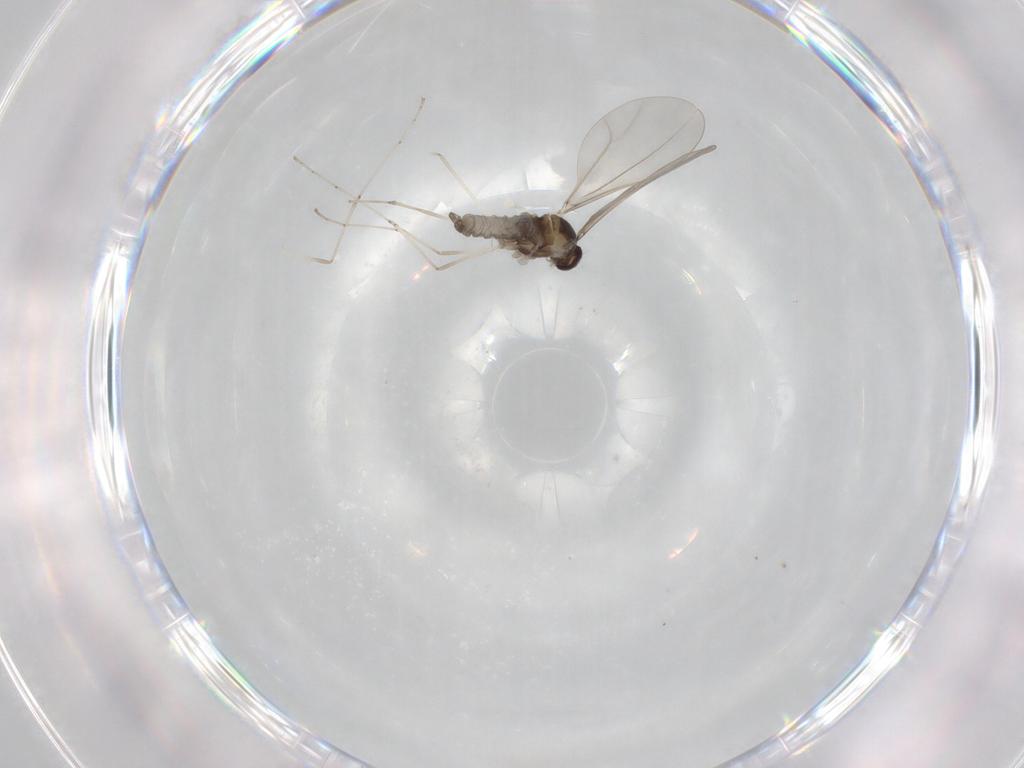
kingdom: Animalia
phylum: Arthropoda
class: Insecta
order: Diptera
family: Cecidomyiidae
